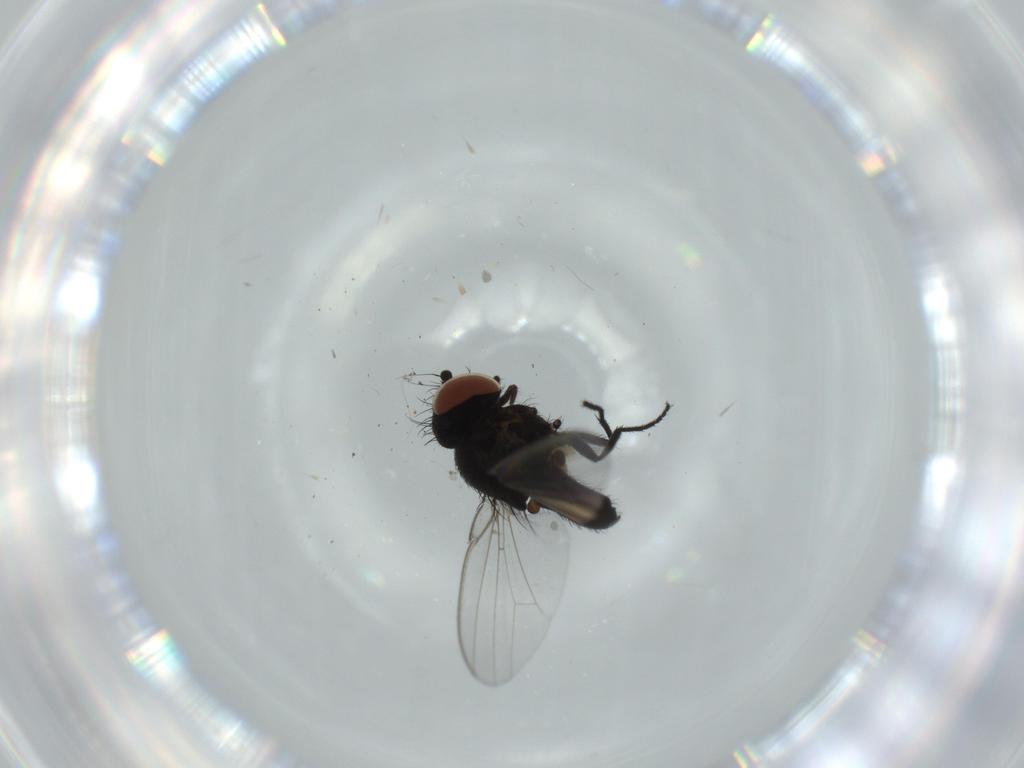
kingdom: Animalia
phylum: Arthropoda
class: Insecta
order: Diptera
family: Milichiidae
